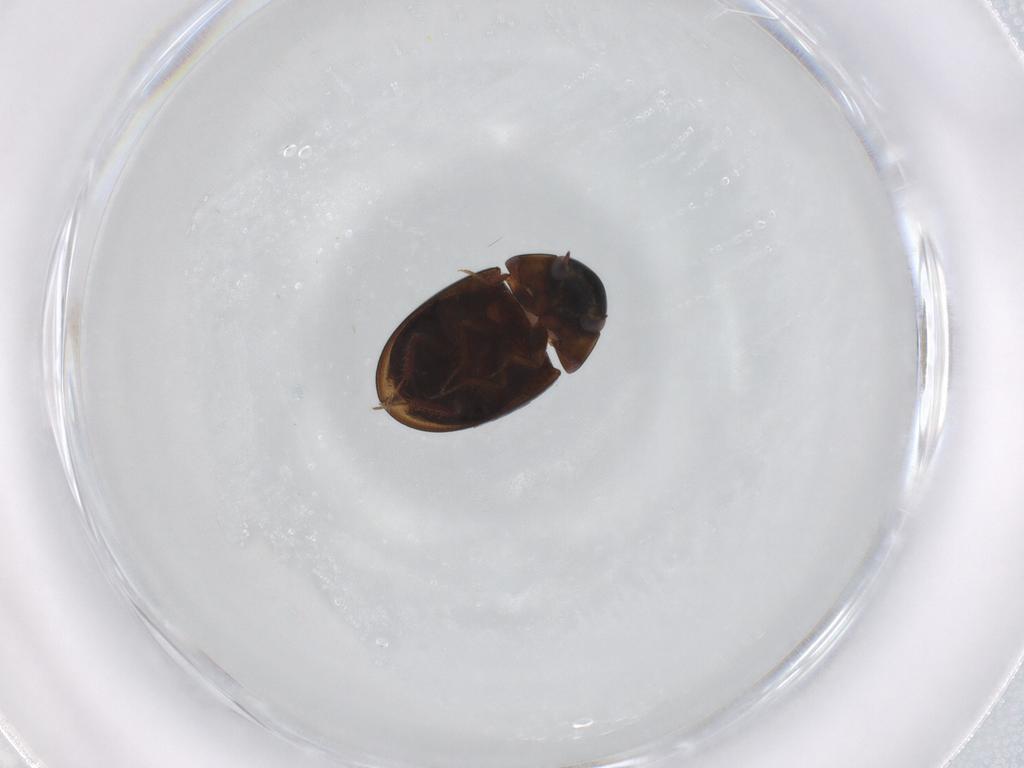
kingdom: Animalia
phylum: Arthropoda
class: Insecta
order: Coleoptera
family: Hydrophilidae
